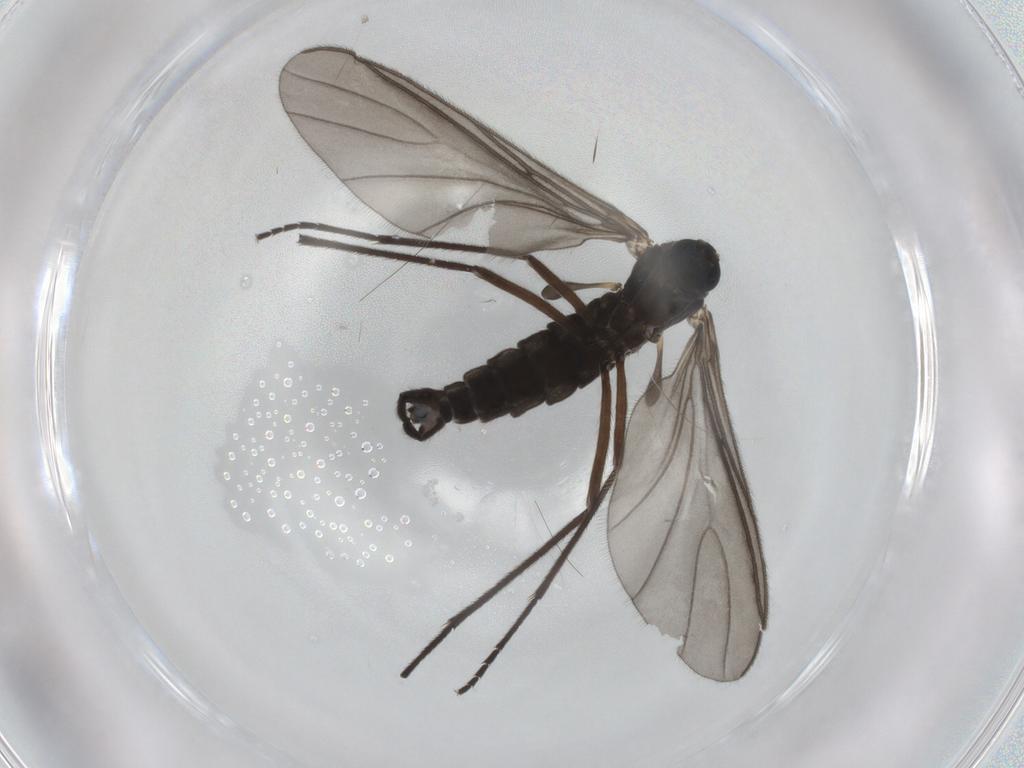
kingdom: Animalia
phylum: Arthropoda
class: Insecta
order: Diptera
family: Sciaridae
